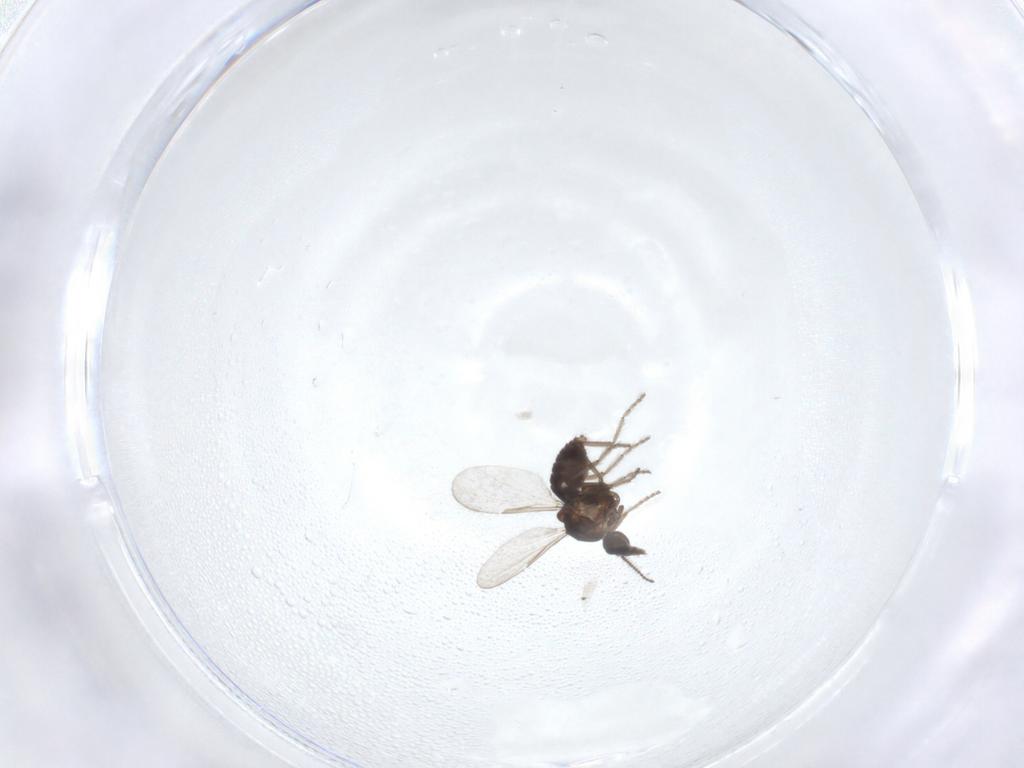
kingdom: Animalia
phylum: Arthropoda
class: Insecta
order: Diptera
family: Ceratopogonidae
